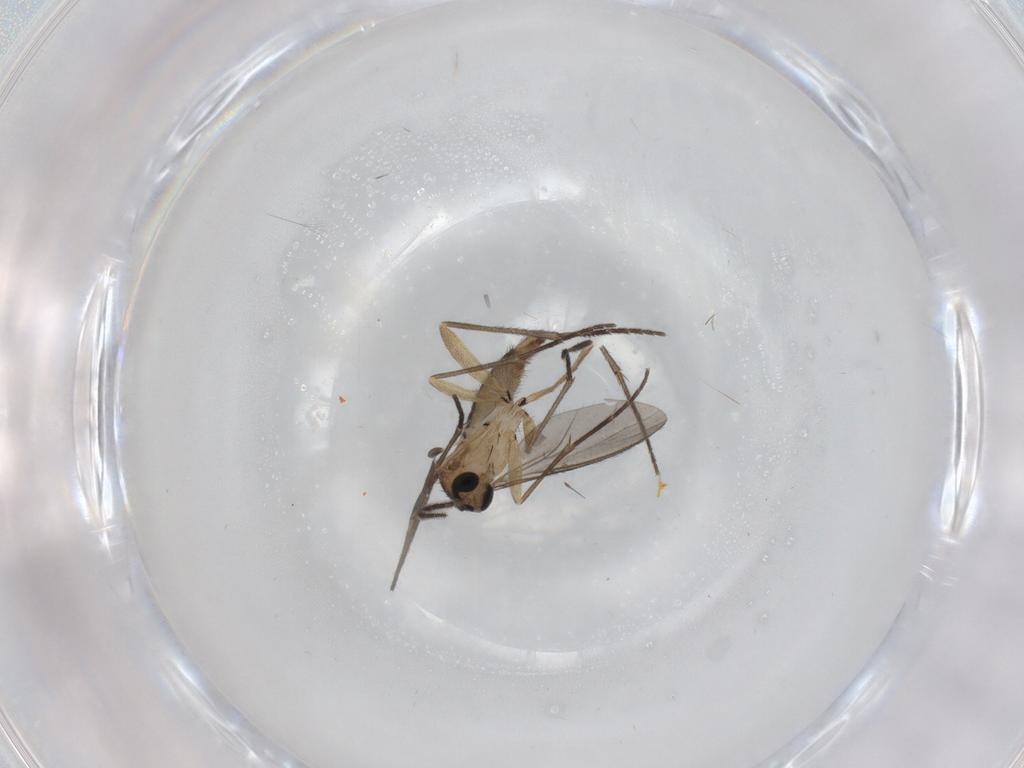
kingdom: Animalia
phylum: Arthropoda
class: Insecta
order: Diptera
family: Sciaridae
